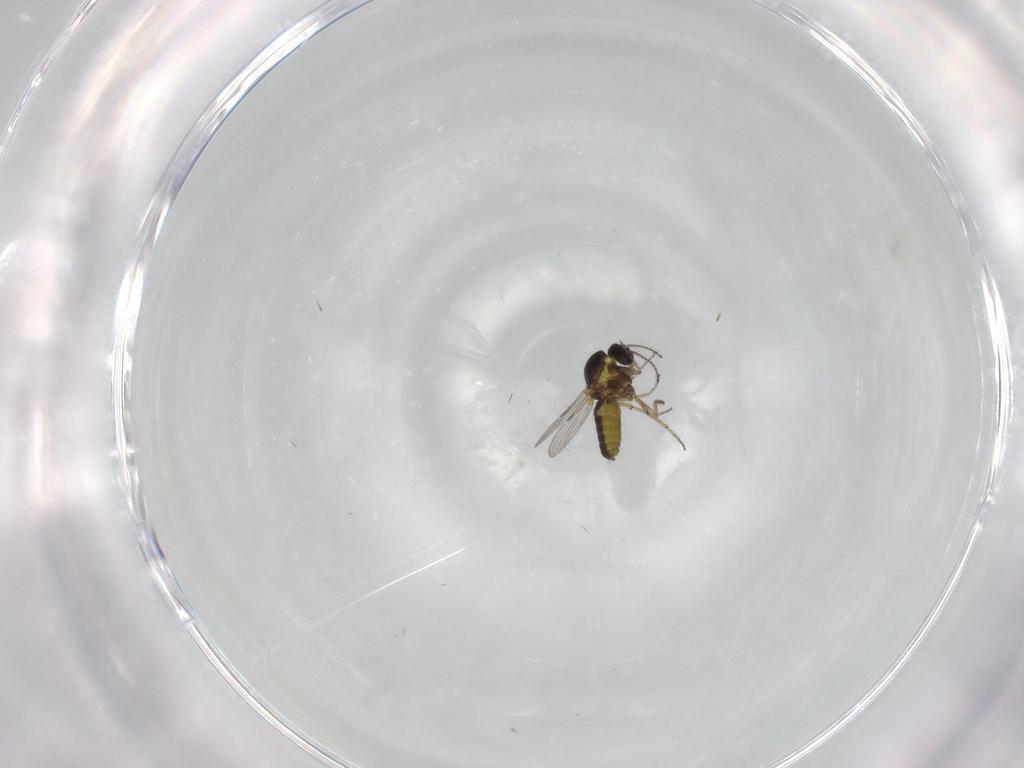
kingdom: Animalia
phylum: Arthropoda
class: Insecta
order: Diptera
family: Ceratopogonidae
